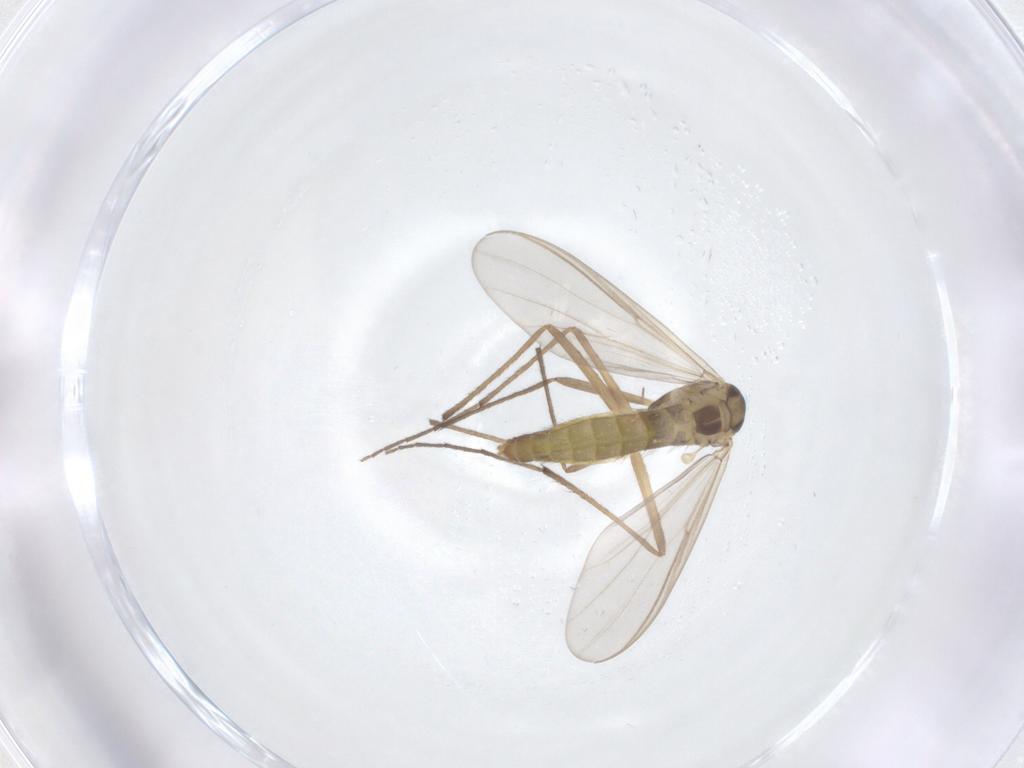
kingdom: Animalia
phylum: Arthropoda
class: Insecta
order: Diptera
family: Chironomidae
